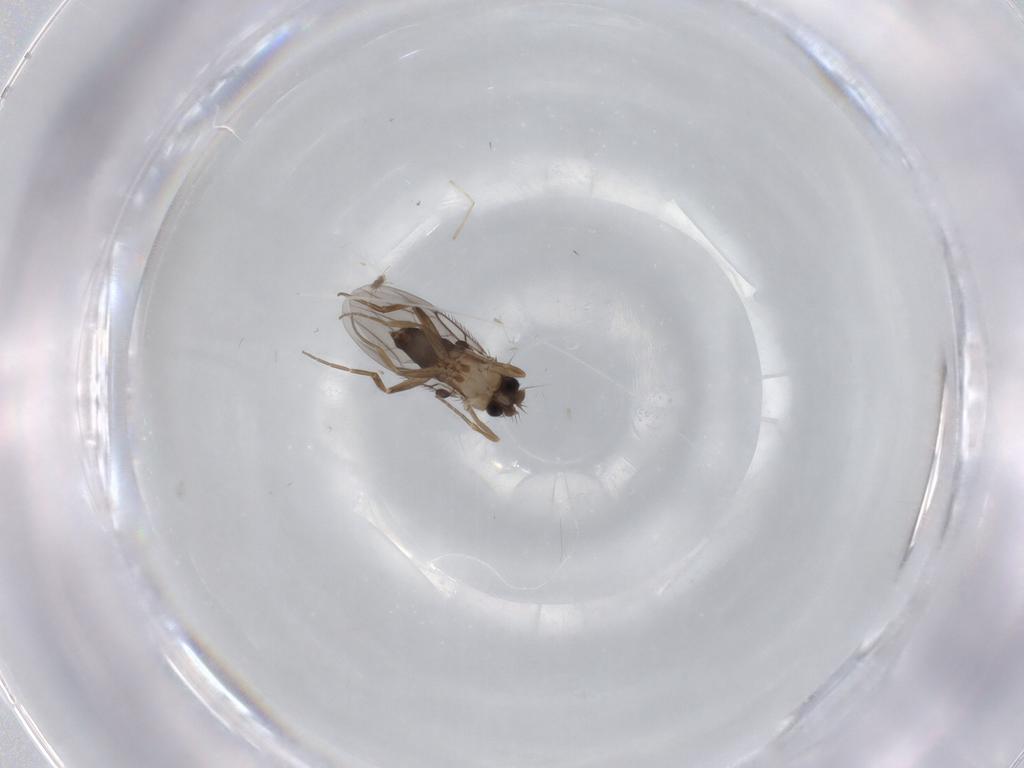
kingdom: Animalia
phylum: Arthropoda
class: Insecta
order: Diptera
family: Phoridae
